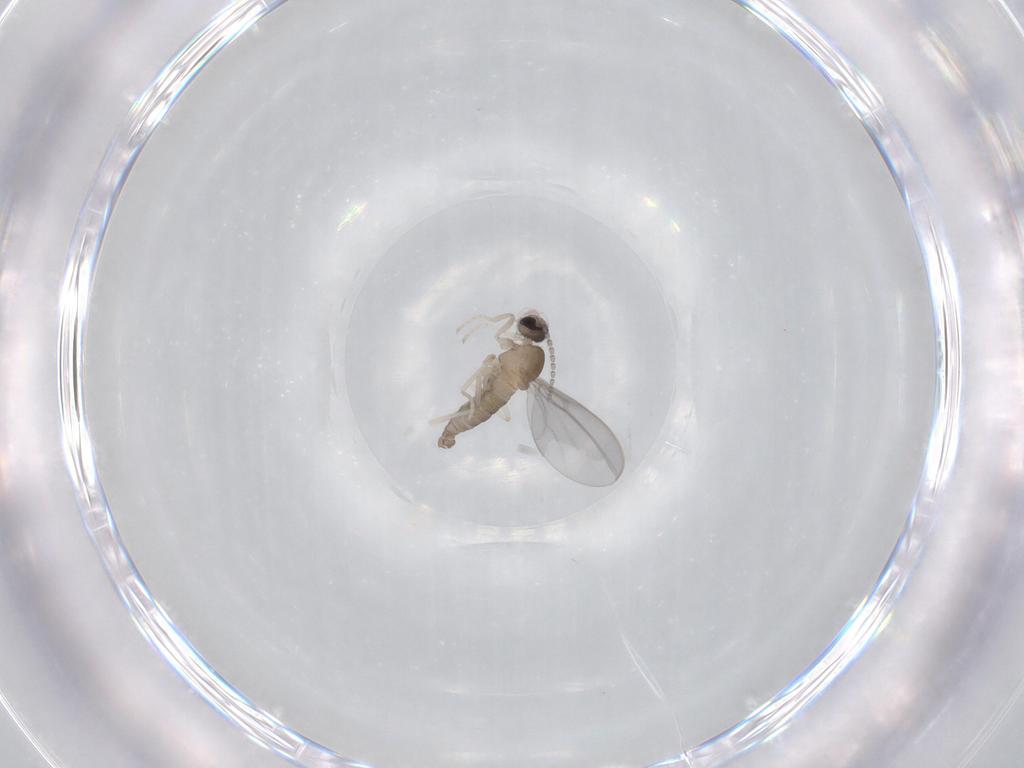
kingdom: Animalia
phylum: Arthropoda
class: Insecta
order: Diptera
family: Cecidomyiidae
